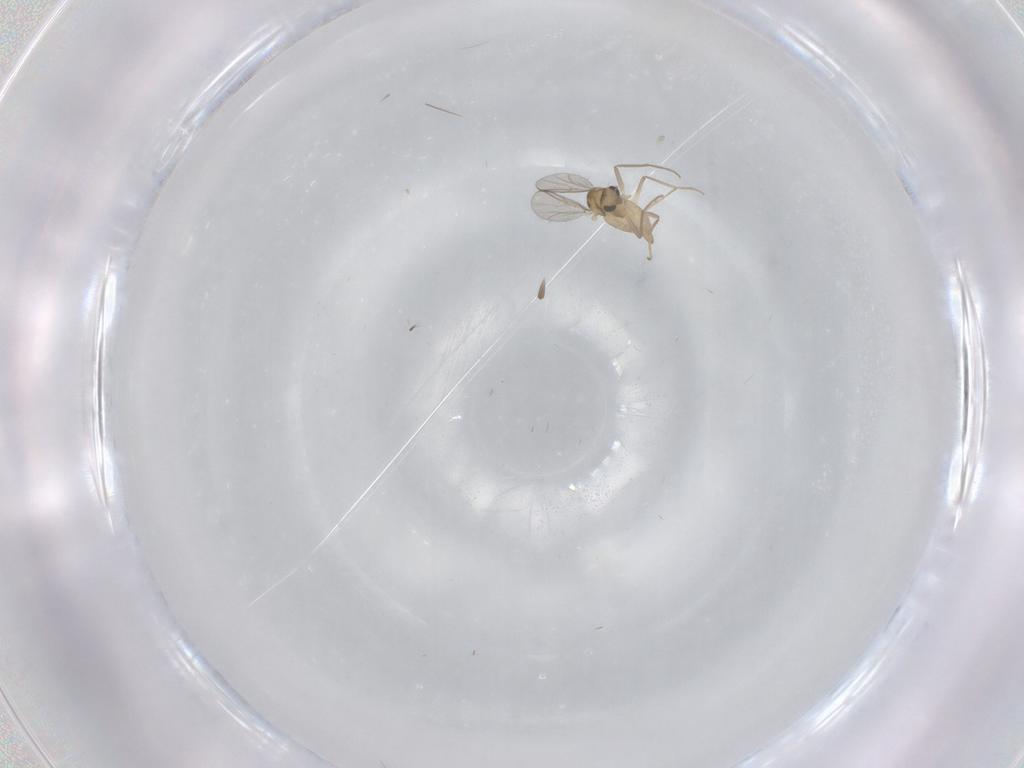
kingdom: Animalia
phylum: Arthropoda
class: Insecta
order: Diptera
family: Chironomidae
